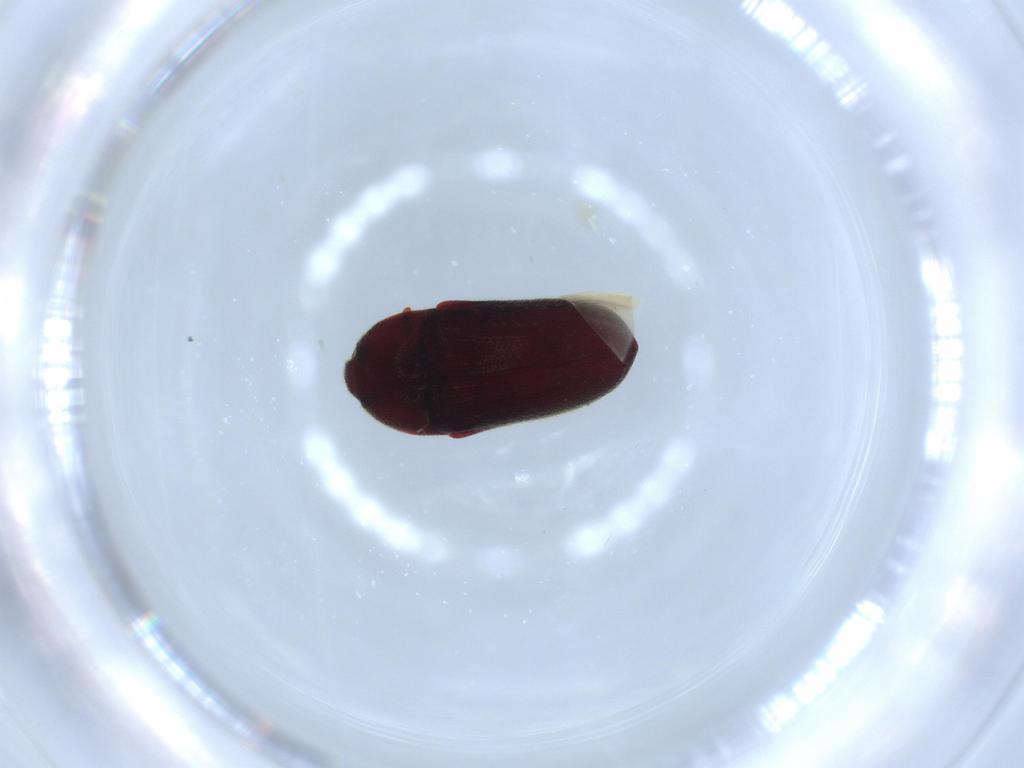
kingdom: Animalia
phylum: Arthropoda
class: Insecta
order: Coleoptera
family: Throscidae
